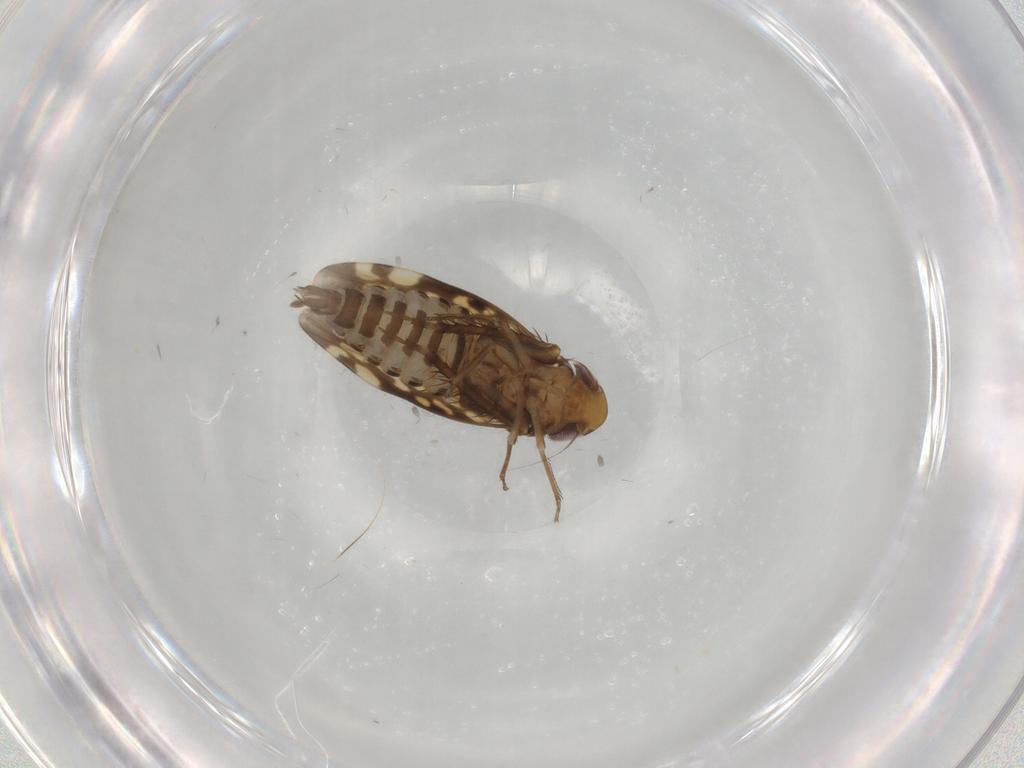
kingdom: Animalia
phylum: Arthropoda
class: Insecta
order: Hemiptera
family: Cicadellidae
